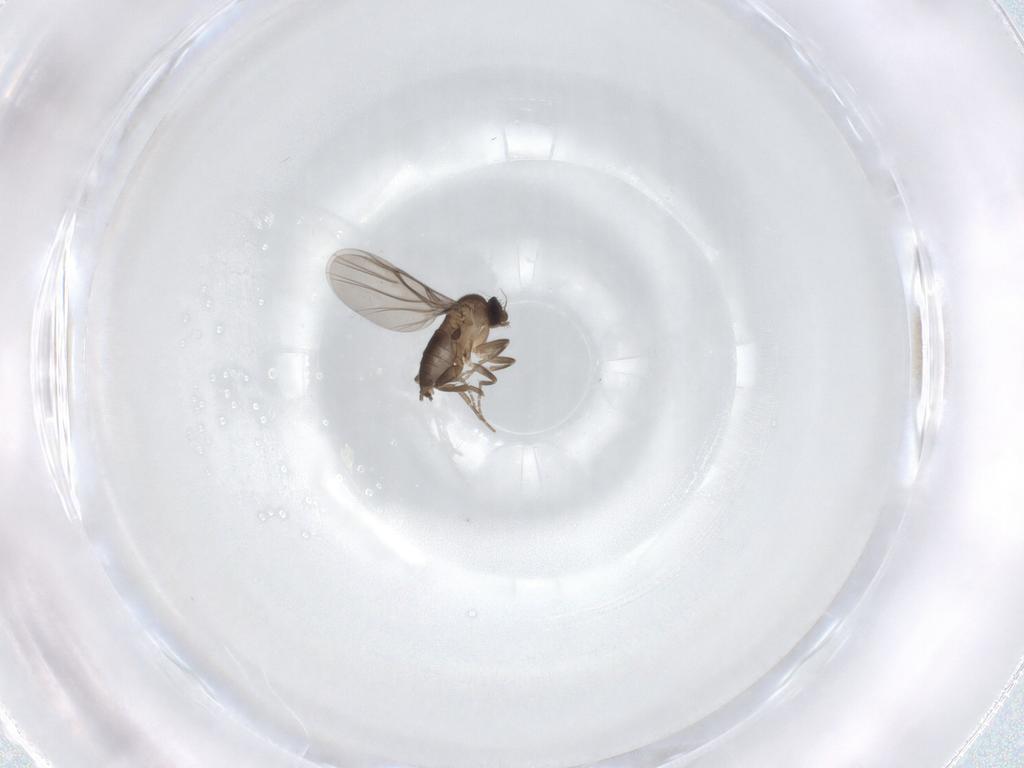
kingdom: Animalia
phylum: Arthropoda
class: Insecta
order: Diptera
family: Phoridae
